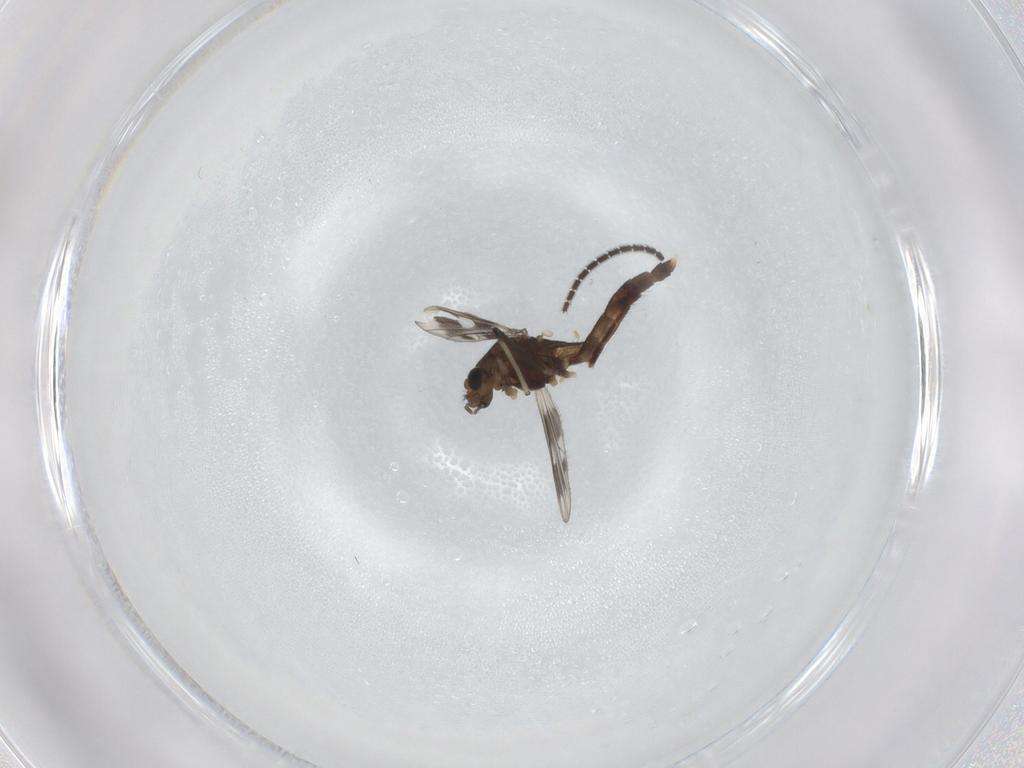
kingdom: Animalia
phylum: Arthropoda
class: Insecta
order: Diptera
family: Chironomidae
